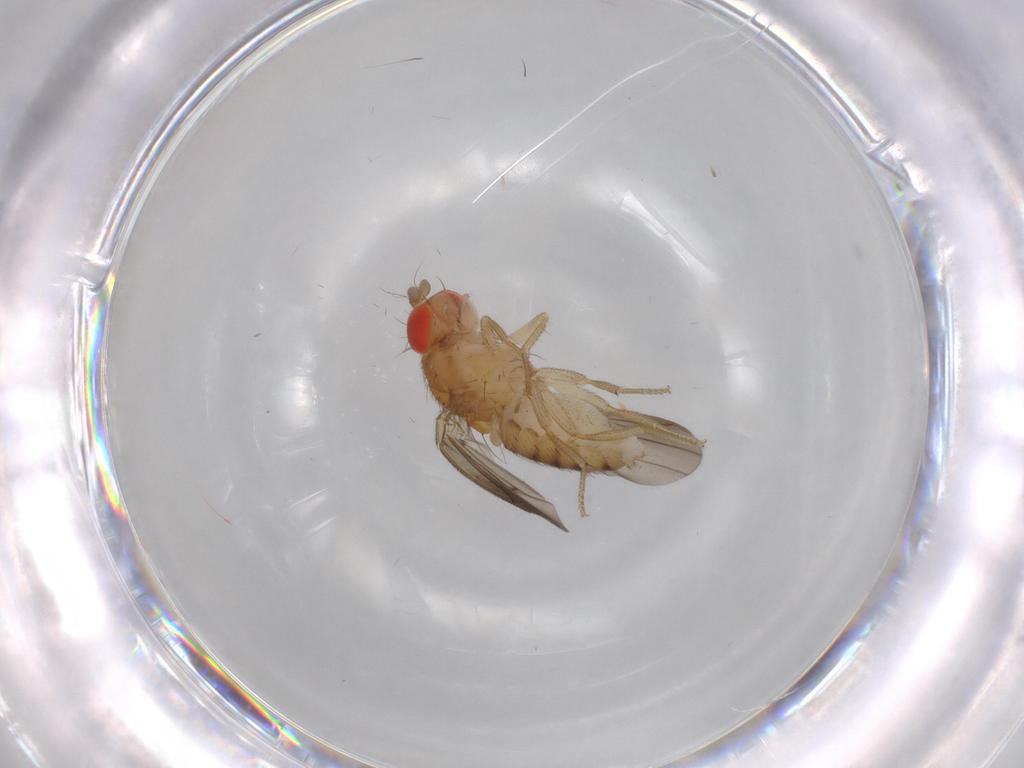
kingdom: Animalia
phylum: Arthropoda
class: Insecta
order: Diptera
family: Drosophilidae
